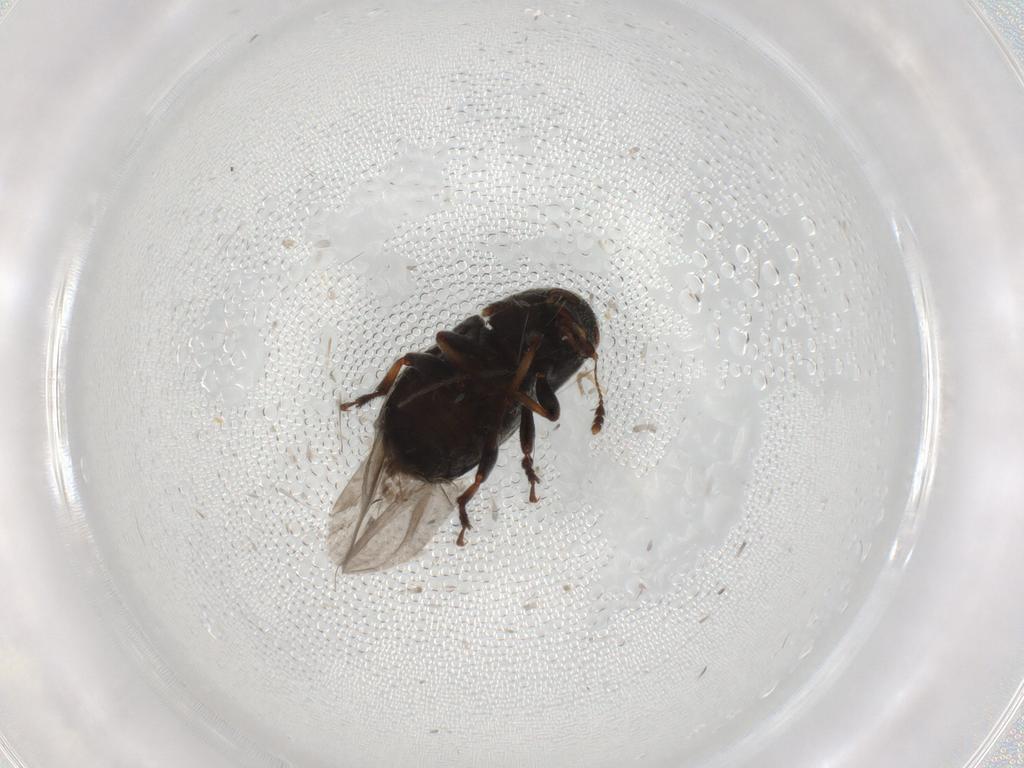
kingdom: Animalia
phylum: Arthropoda
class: Insecta
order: Coleoptera
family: Anthribidae
